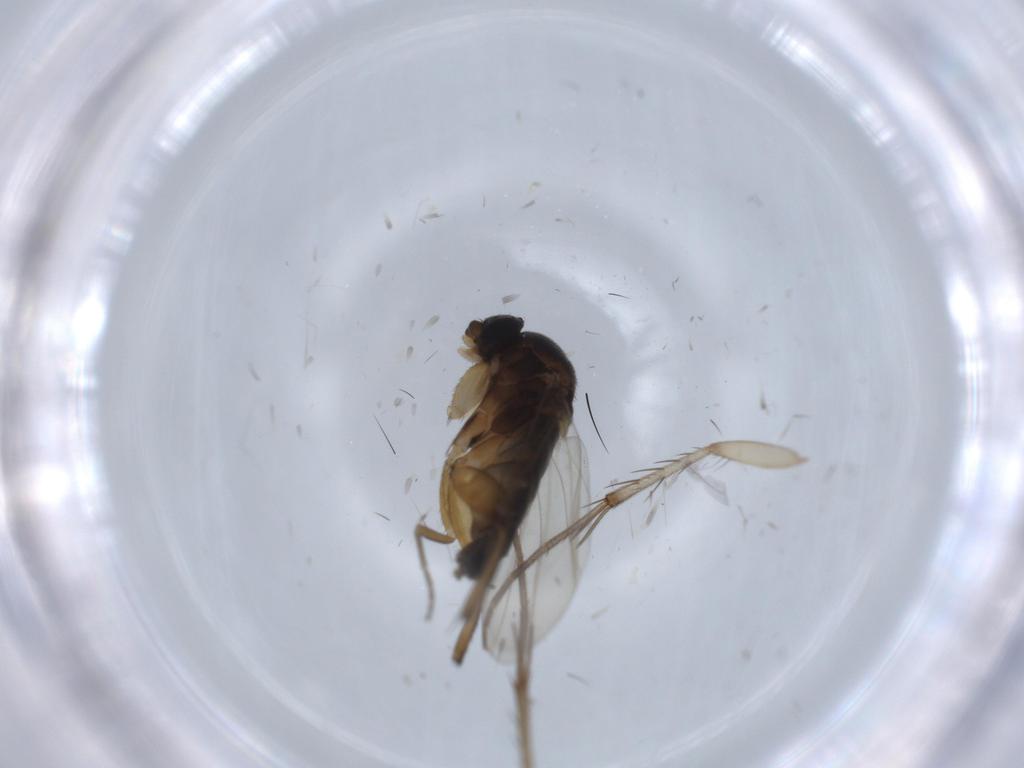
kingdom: Animalia
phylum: Arthropoda
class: Insecta
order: Diptera
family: Phoridae
